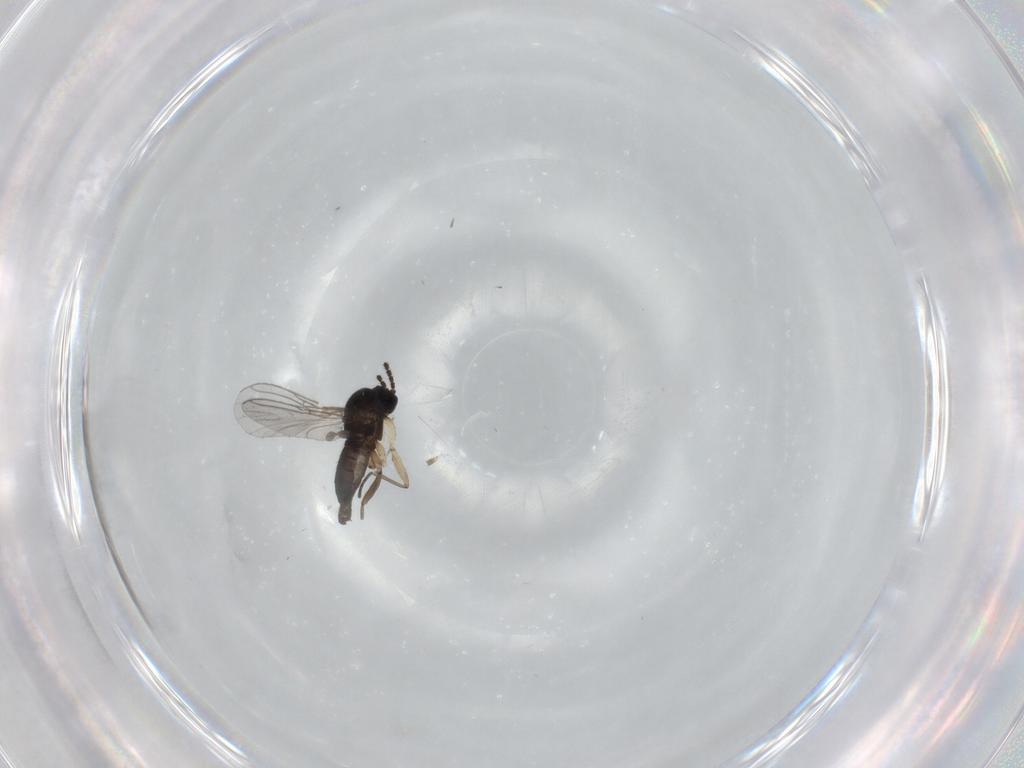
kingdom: Animalia
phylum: Arthropoda
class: Insecta
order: Diptera
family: Sciaridae
